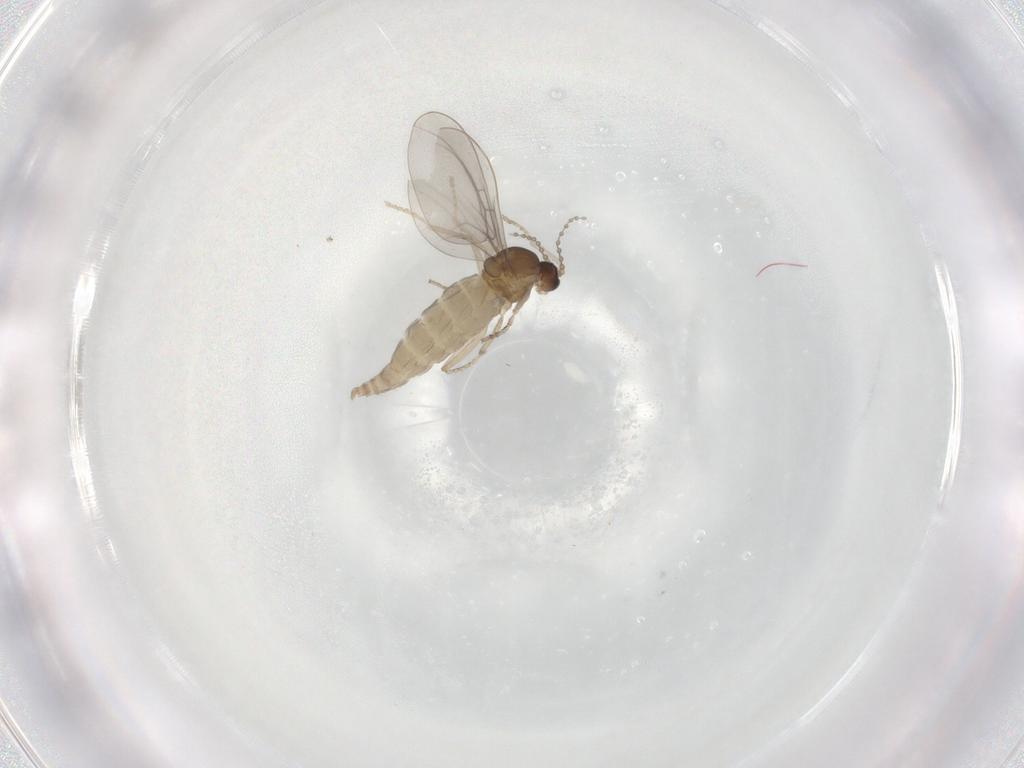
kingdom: Animalia
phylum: Arthropoda
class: Insecta
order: Diptera
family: Cecidomyiidae
